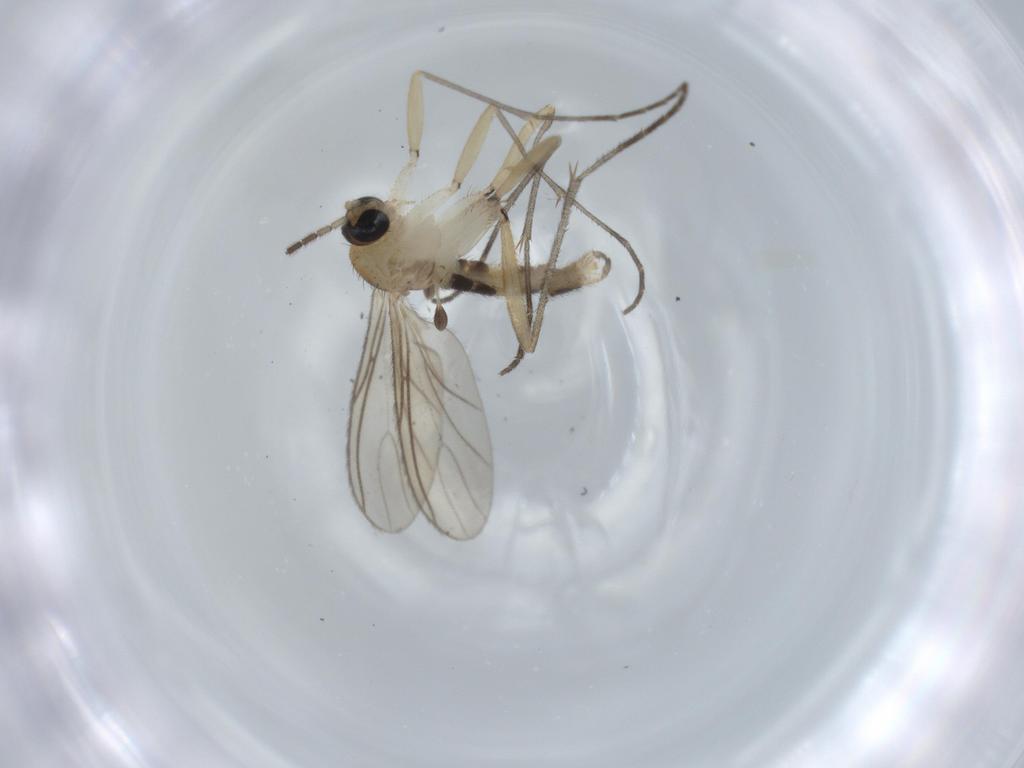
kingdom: Animalia
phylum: Arthropoda
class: Insecta
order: Diptera
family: Sciaridae
